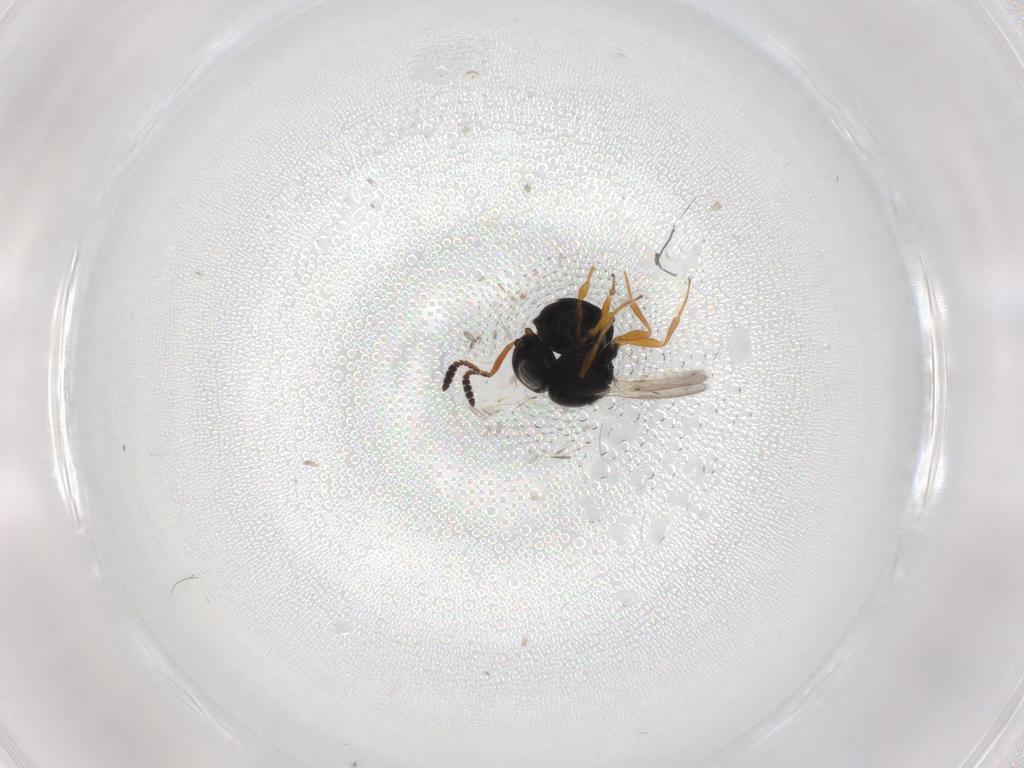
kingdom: Animalia
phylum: Arthropoda
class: Insecta
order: Hymenoptera
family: Scelionidae
